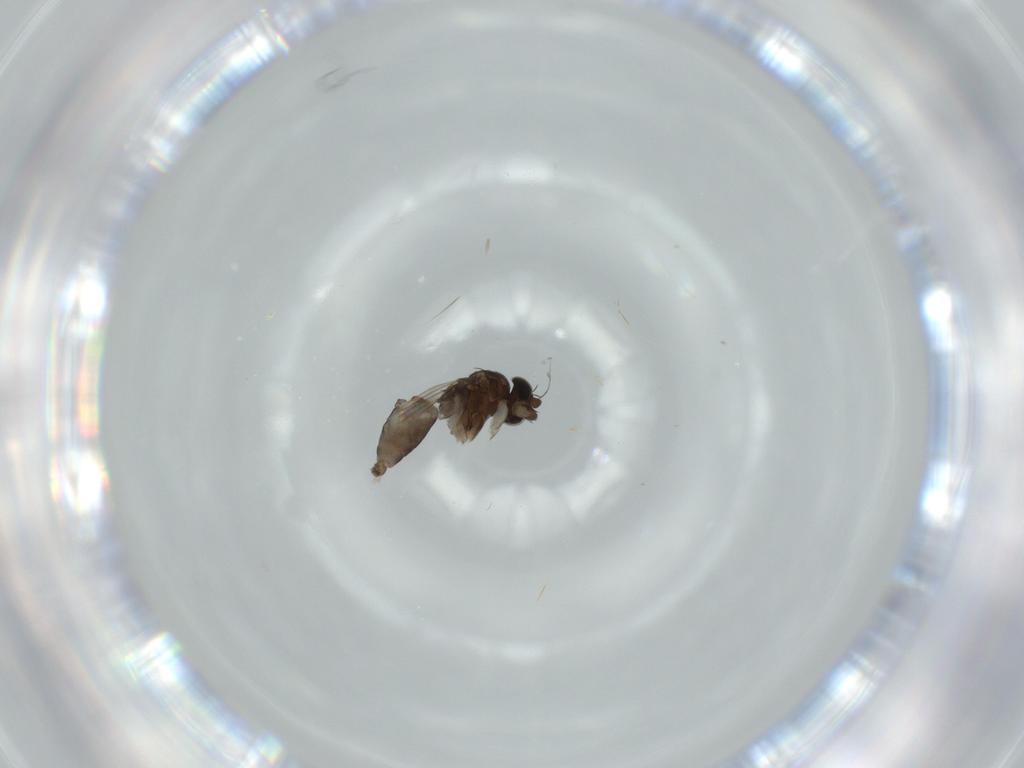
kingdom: Animalia
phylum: Arthropoda
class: Insecta
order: Diptera
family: Phoridae
